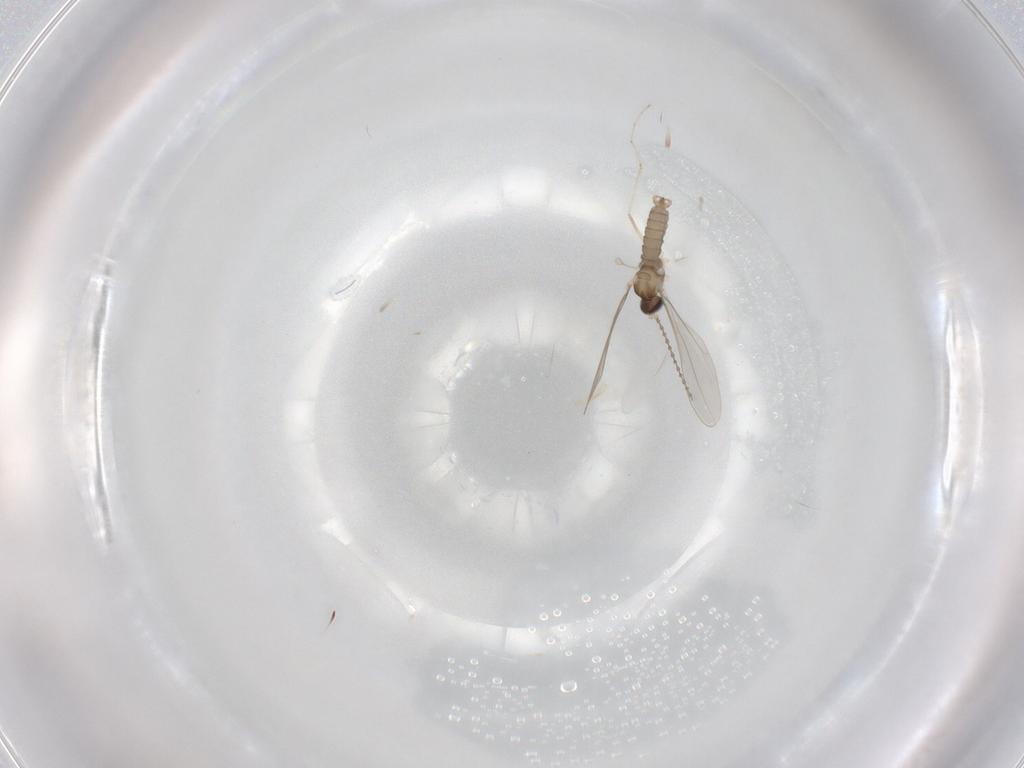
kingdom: Animalia
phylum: Arthropoda
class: Insecta
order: Diptera
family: Cecidomyiidae
